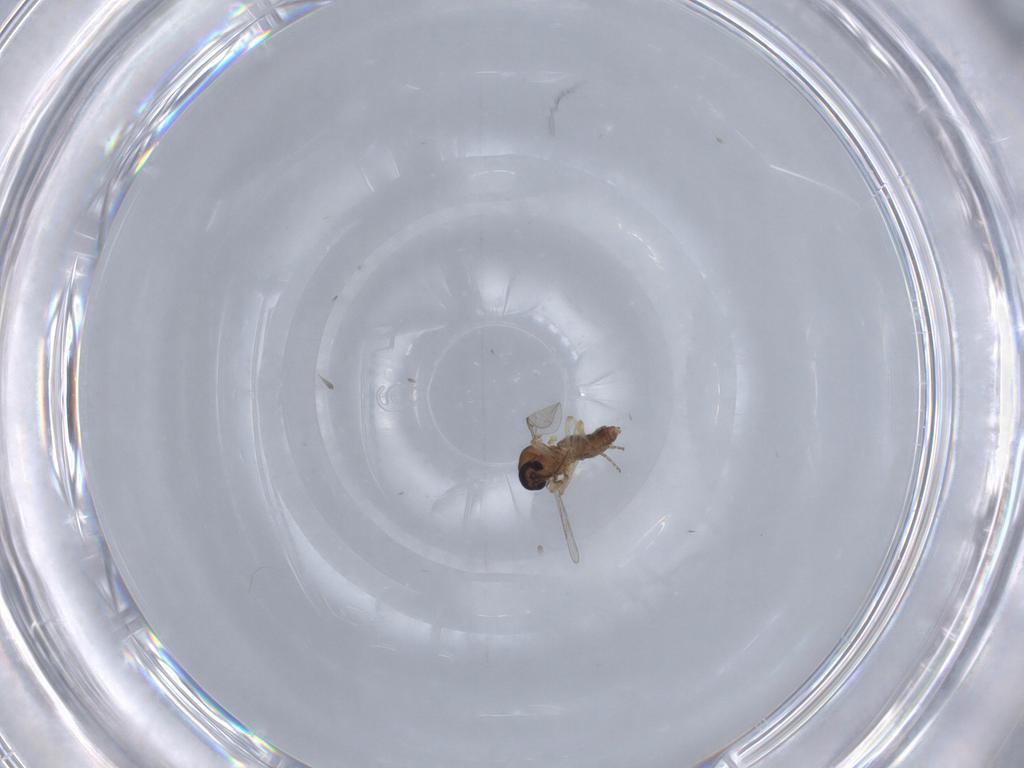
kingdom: Animalia
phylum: Arthropoda
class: Insecta
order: Diptera
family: Ceratopogonidae
